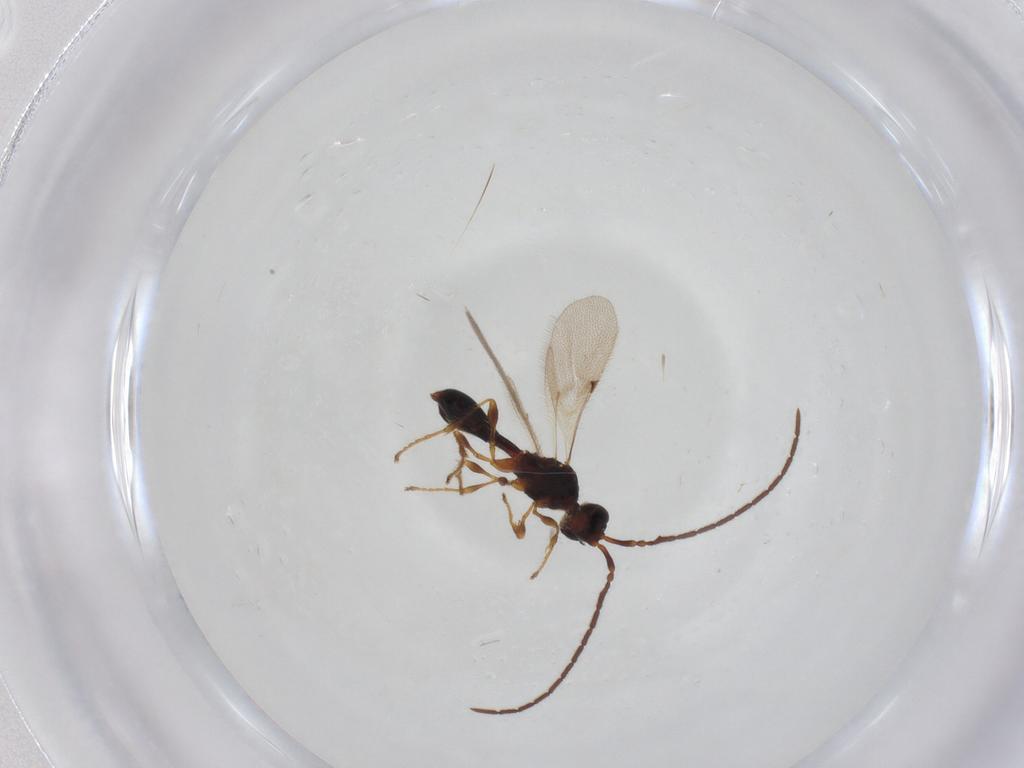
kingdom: Animalia
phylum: Arthropoda
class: Insecta
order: Hymenoptera
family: Diapriidae
